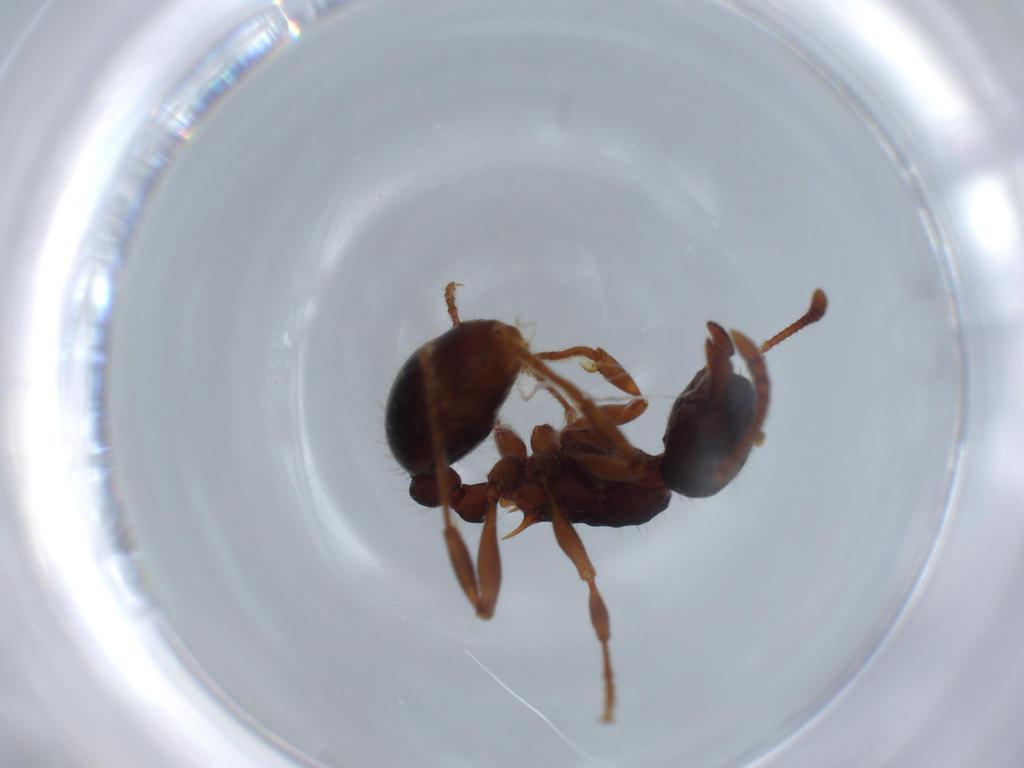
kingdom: Animalia
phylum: Arthropoda
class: Insecta
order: Hymenoptera
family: Formicidae
